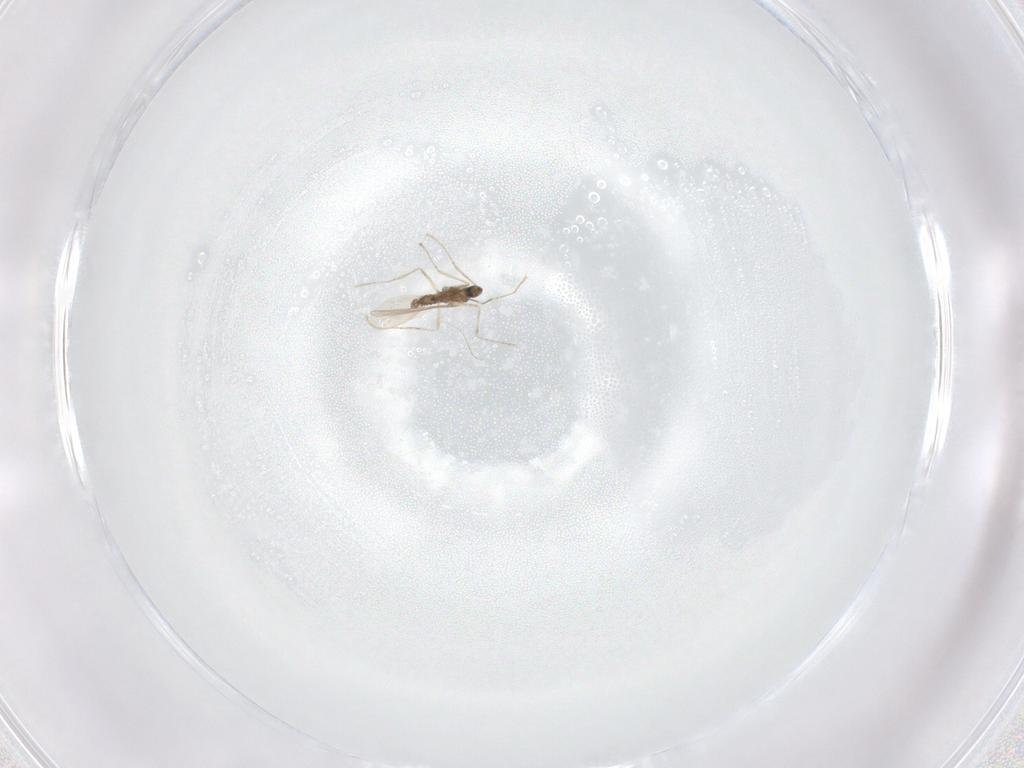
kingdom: Animalia
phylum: Arthropoda
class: Insecta
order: Diptera
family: Cecidomyiidae
